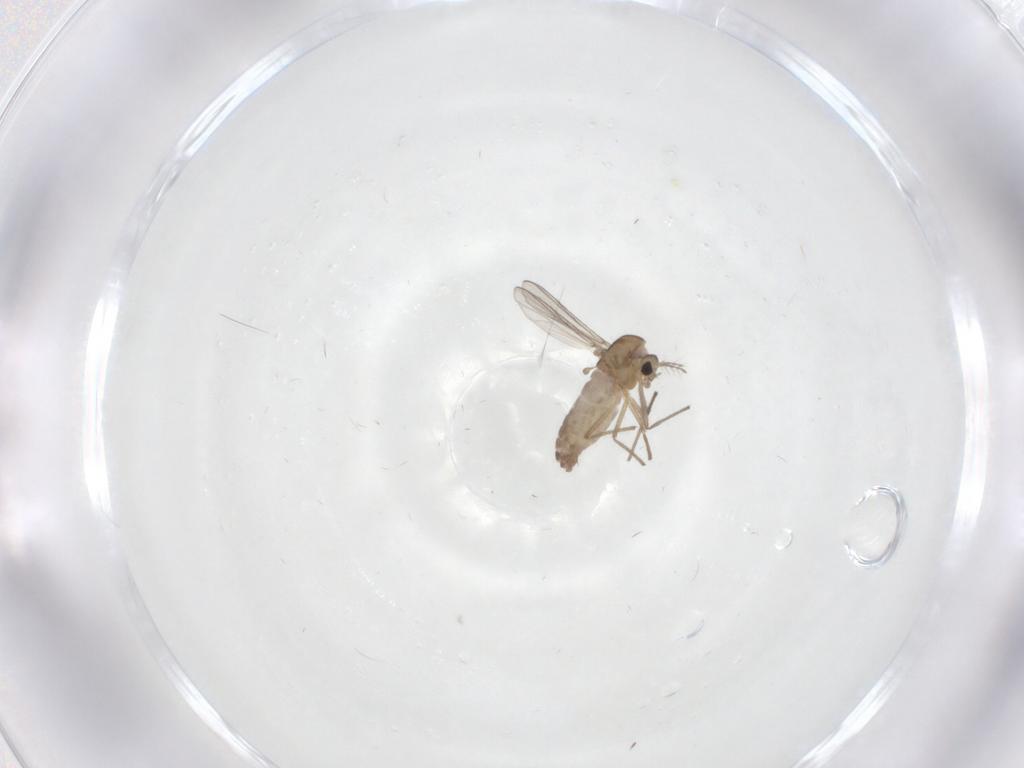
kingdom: Animalia
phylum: Arthropoda
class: Insecta
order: Diptera
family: Chironomidae
